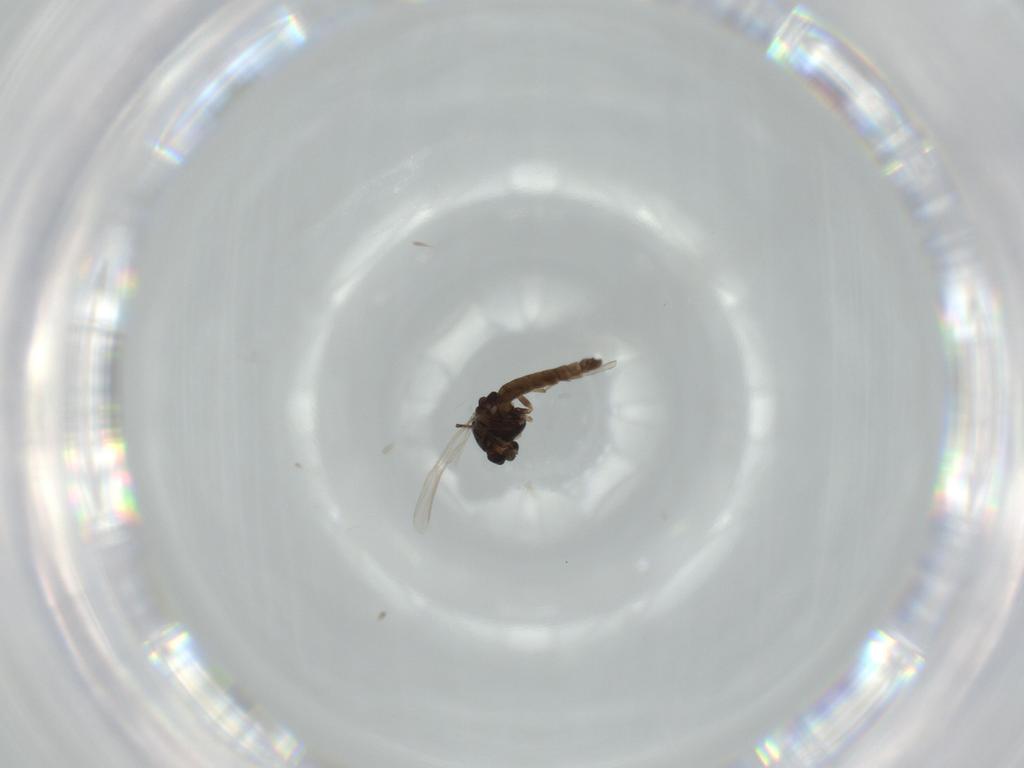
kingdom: Animalia
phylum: Arthropoda
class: Insecta
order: Diptera
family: Chironomidae
